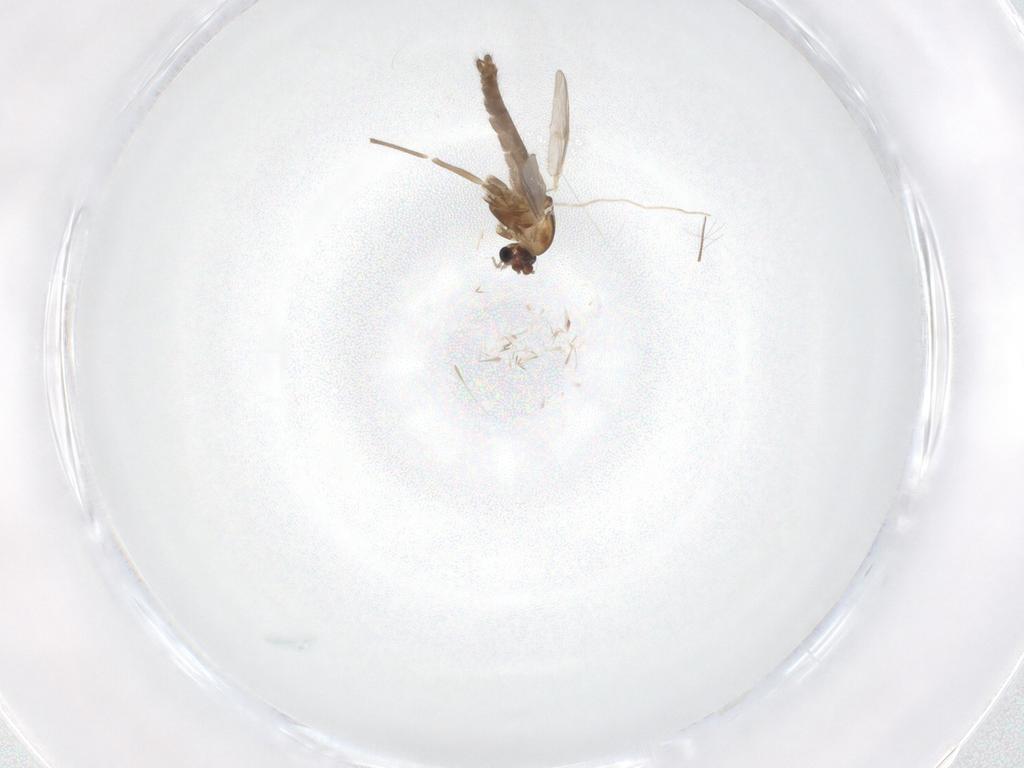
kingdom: Animalia
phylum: Arthropoda
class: Insecta
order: Diptera
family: Chironomidae
